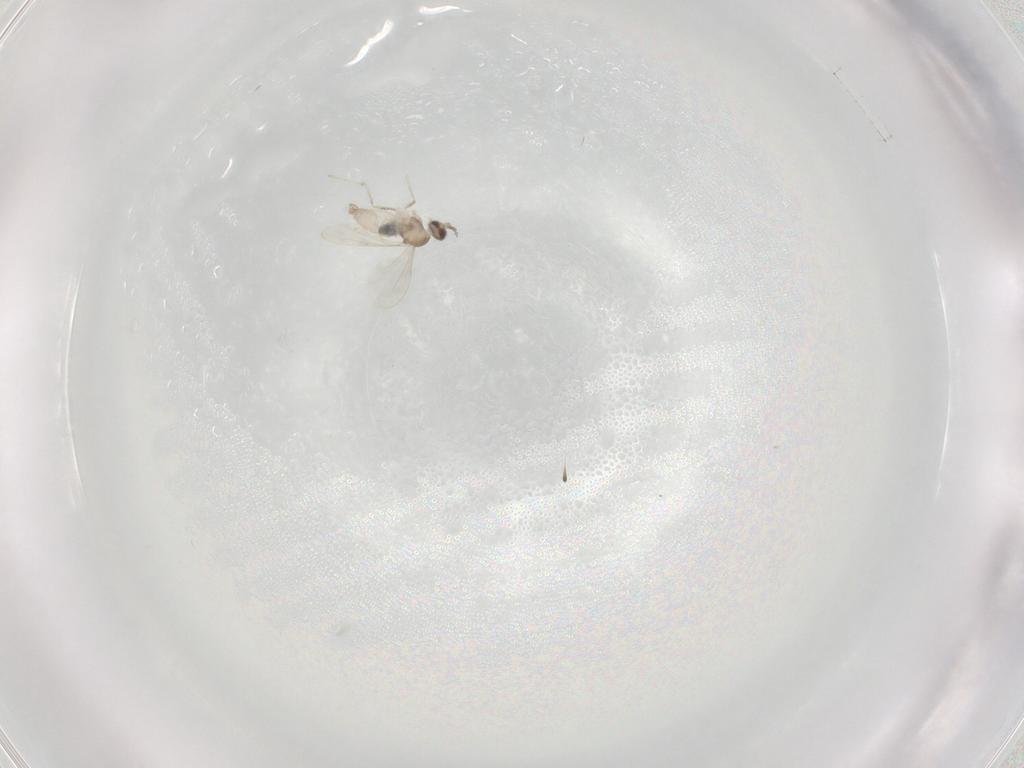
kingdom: Animalia
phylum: Arthropoda
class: Insecta
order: Diptera
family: Cecidomyiidae
